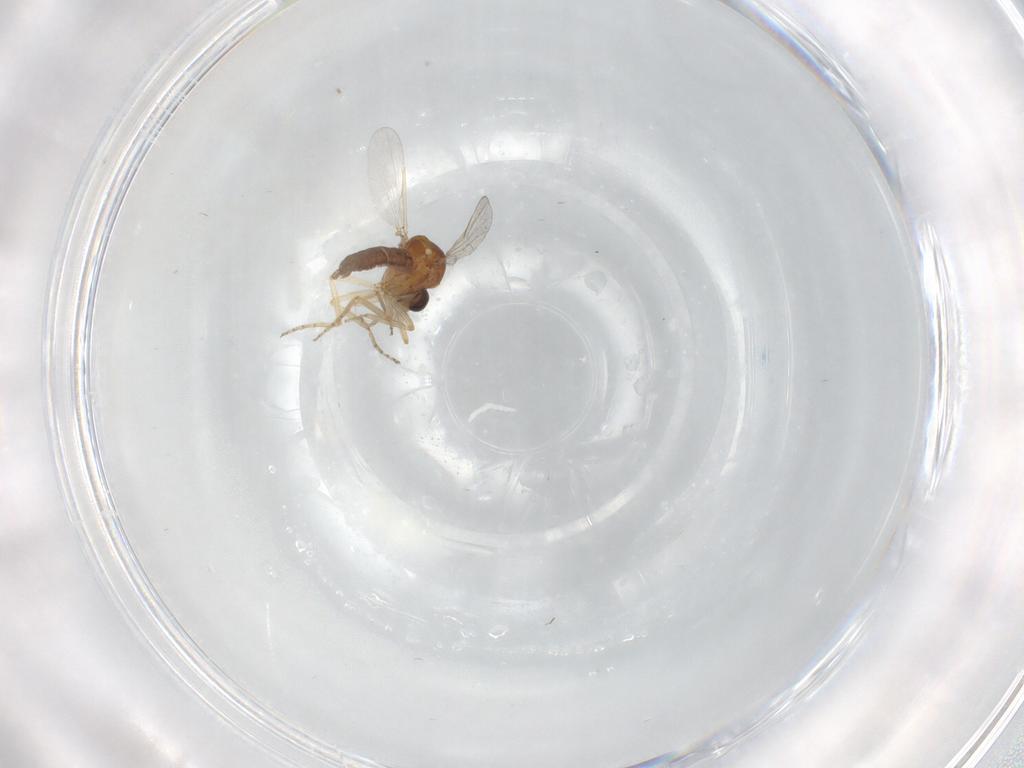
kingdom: Animalia
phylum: Arthropoda
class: Insecta
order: Diptera
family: Ceratopogonidae
